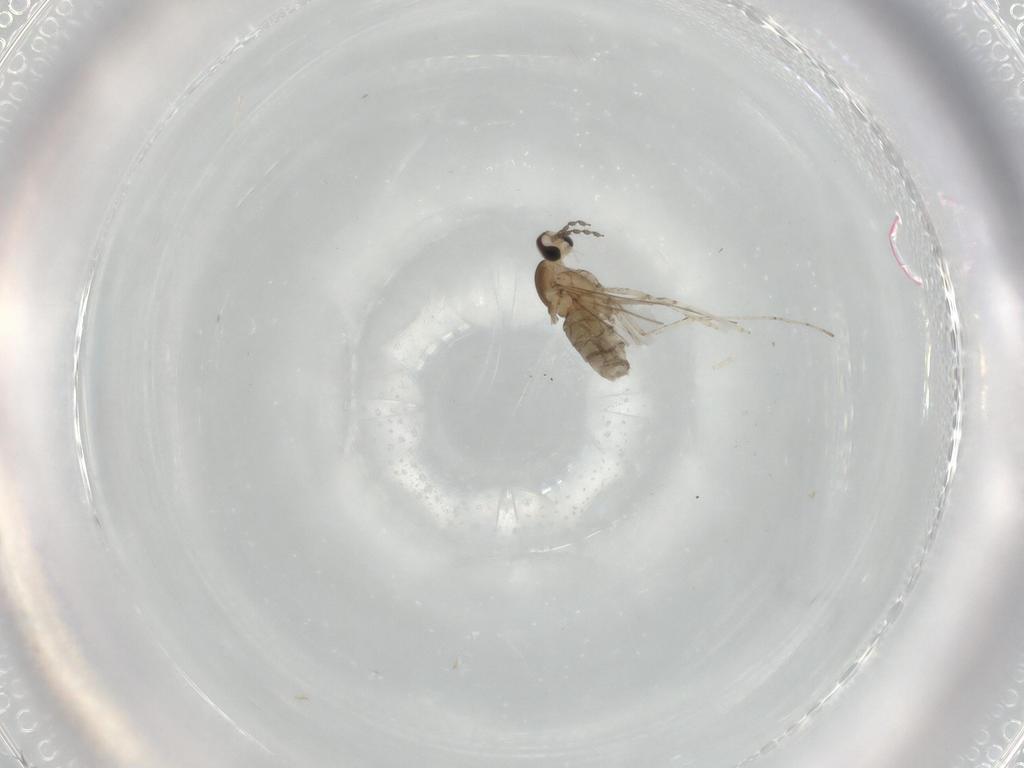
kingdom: Animalia
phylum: Arthropoda
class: Insecta
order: Diptera
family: Cecidomyiidae
